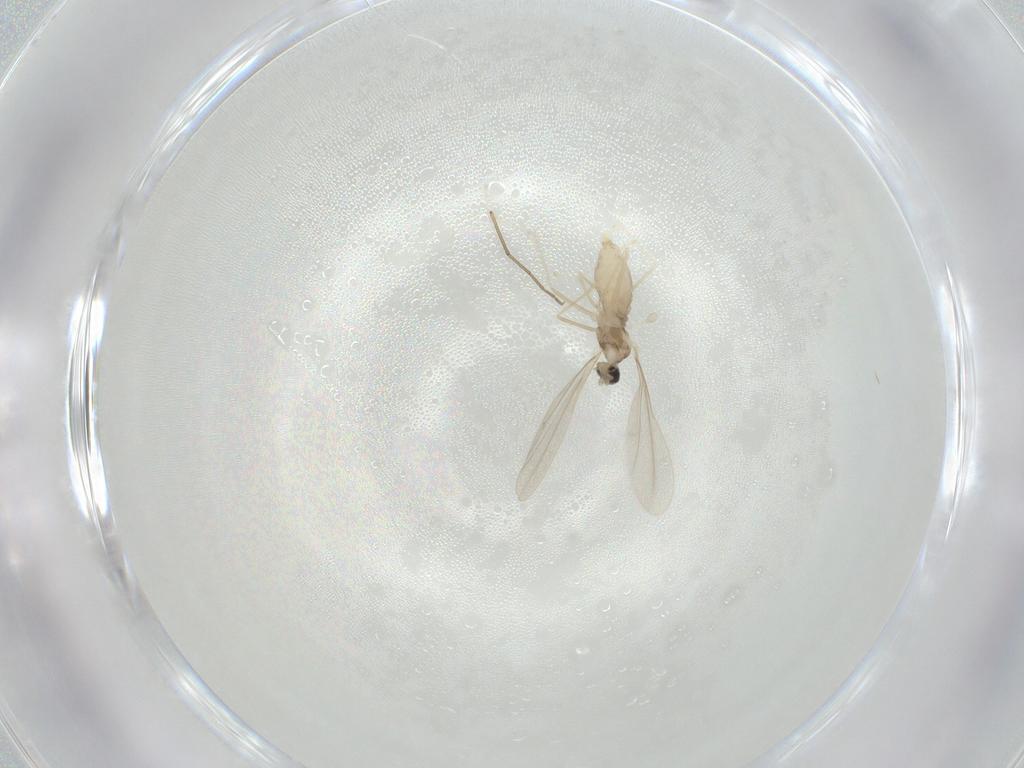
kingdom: Animalia
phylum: Arthropoda
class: Insecta
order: Diptera
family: Cecidomyiidae
